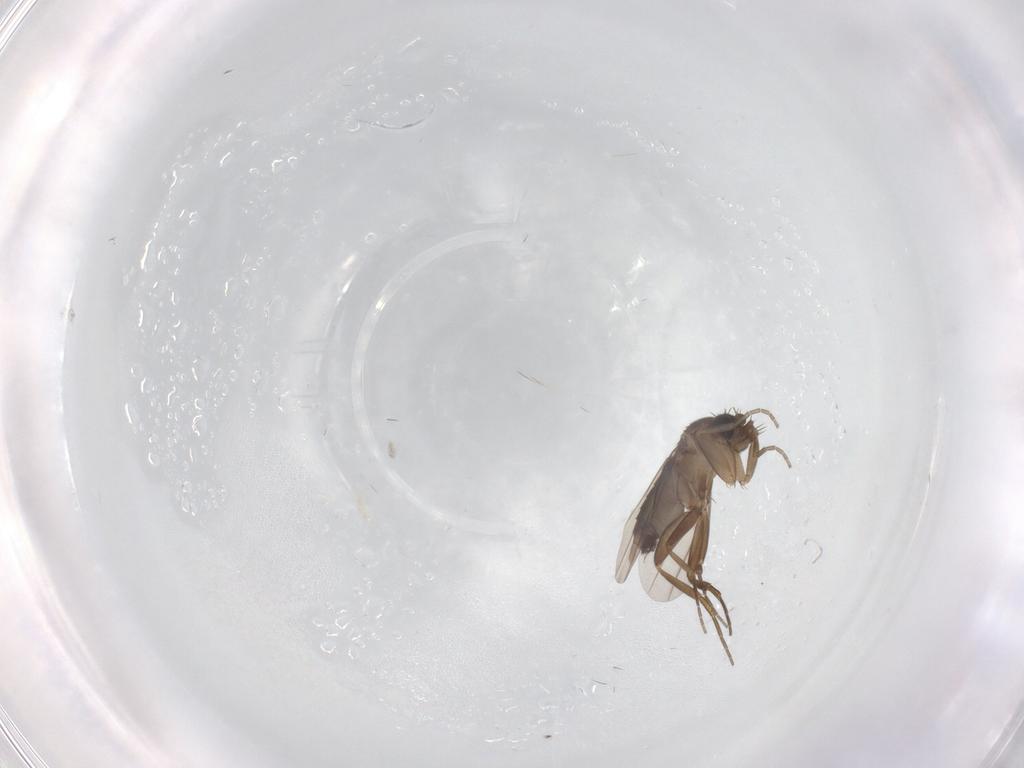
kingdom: Animalia
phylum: Arthropoda
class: Insecta
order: Diptera
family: Phoridae
